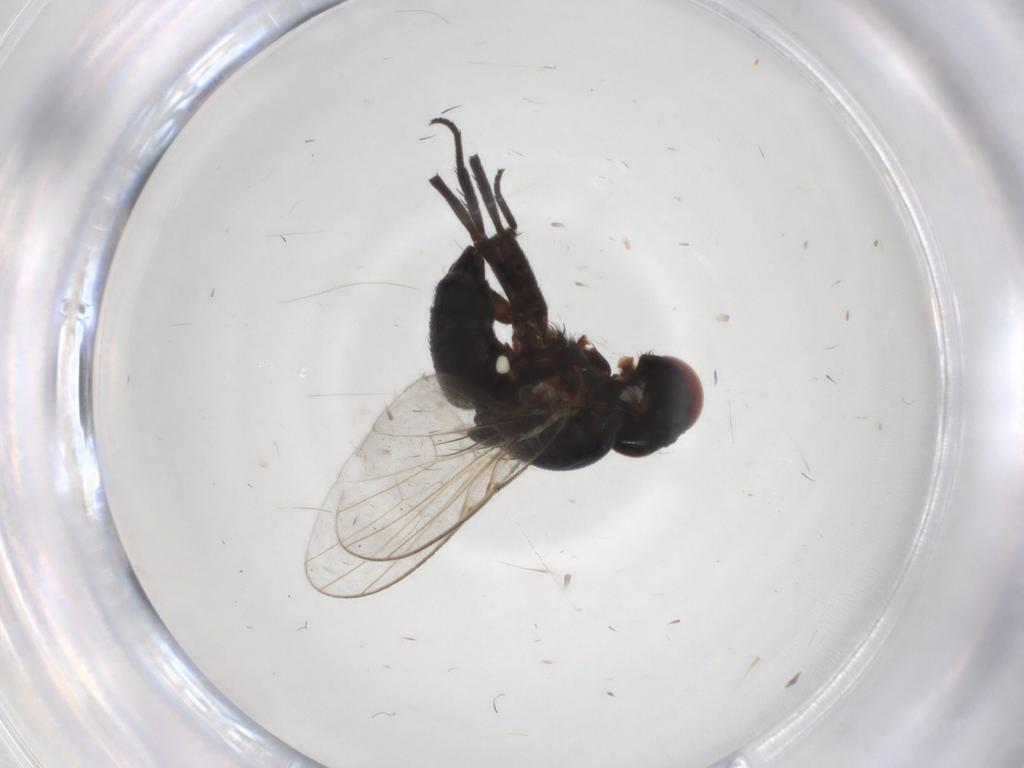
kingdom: Animalia
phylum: Arthropoda
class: Insecta
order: Diptera
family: Agromyzidae
